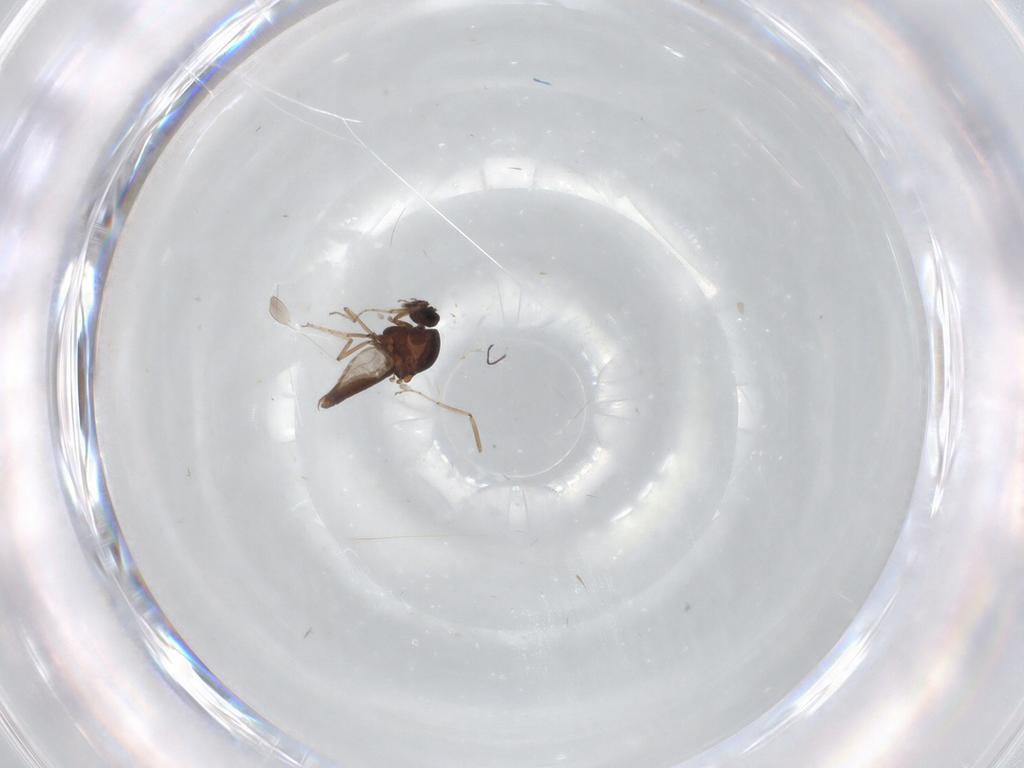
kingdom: Animalia
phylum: Arthropoda
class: Insecta
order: Diptera
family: Ceratopogonidae
